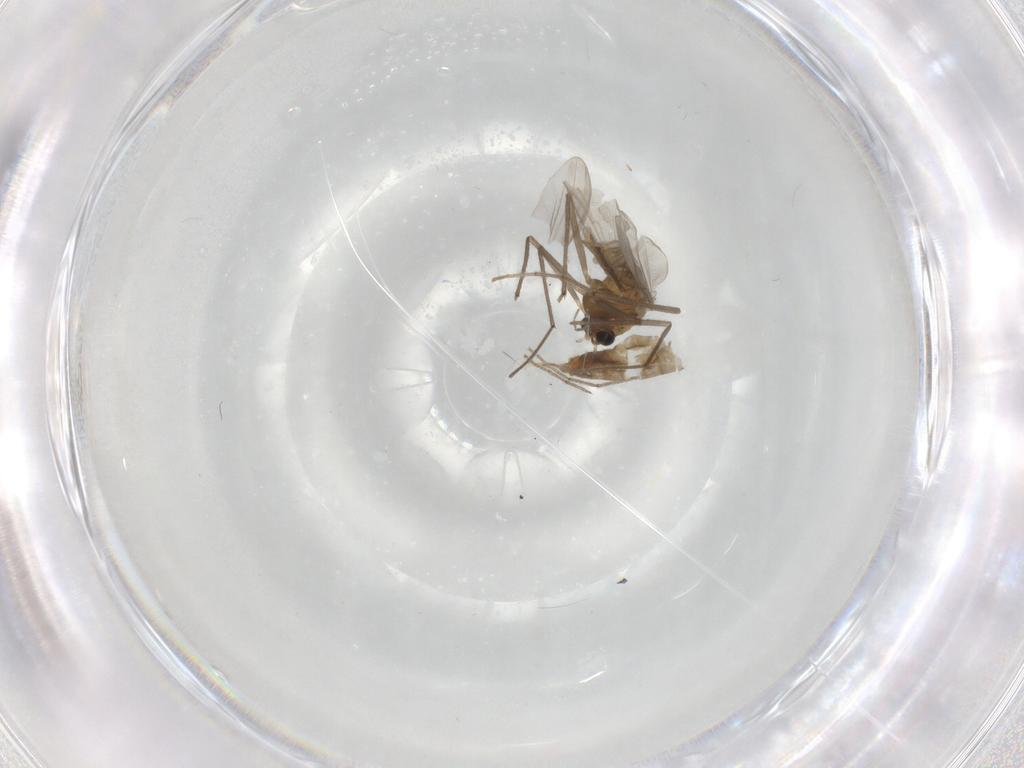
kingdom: Animalia
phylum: Arthropoda
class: Insecta
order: Diptera
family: Chironomidae
